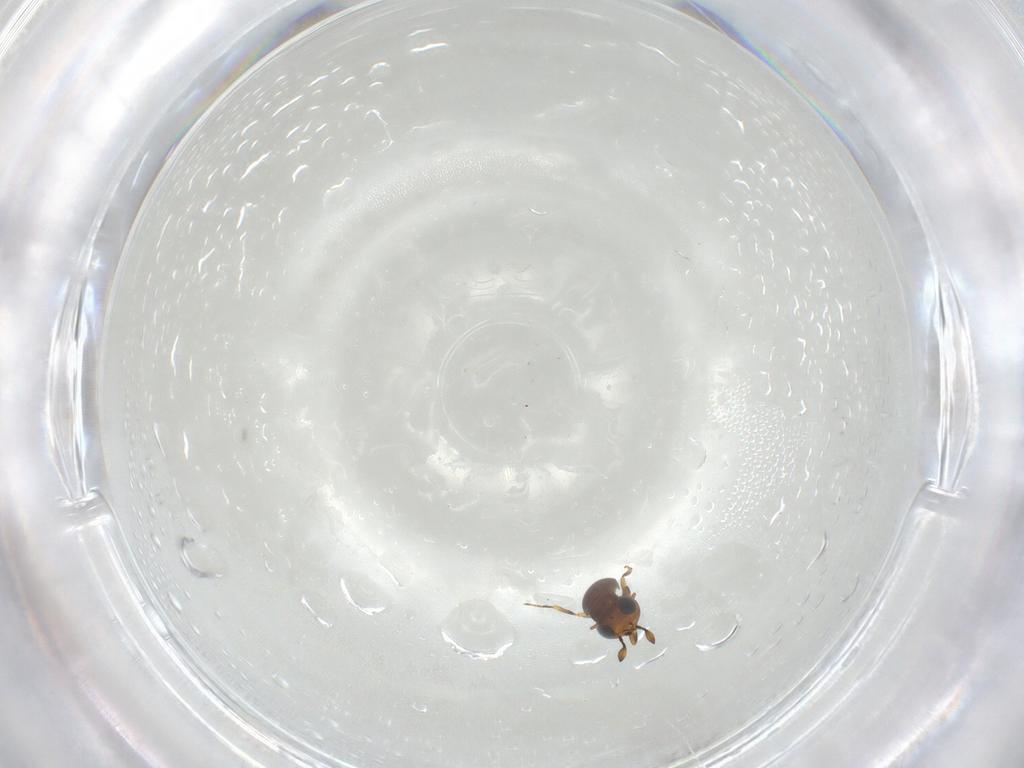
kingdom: Animalia
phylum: Arthropoda
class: Insecta
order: Hymenoptera
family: Scelionidae
